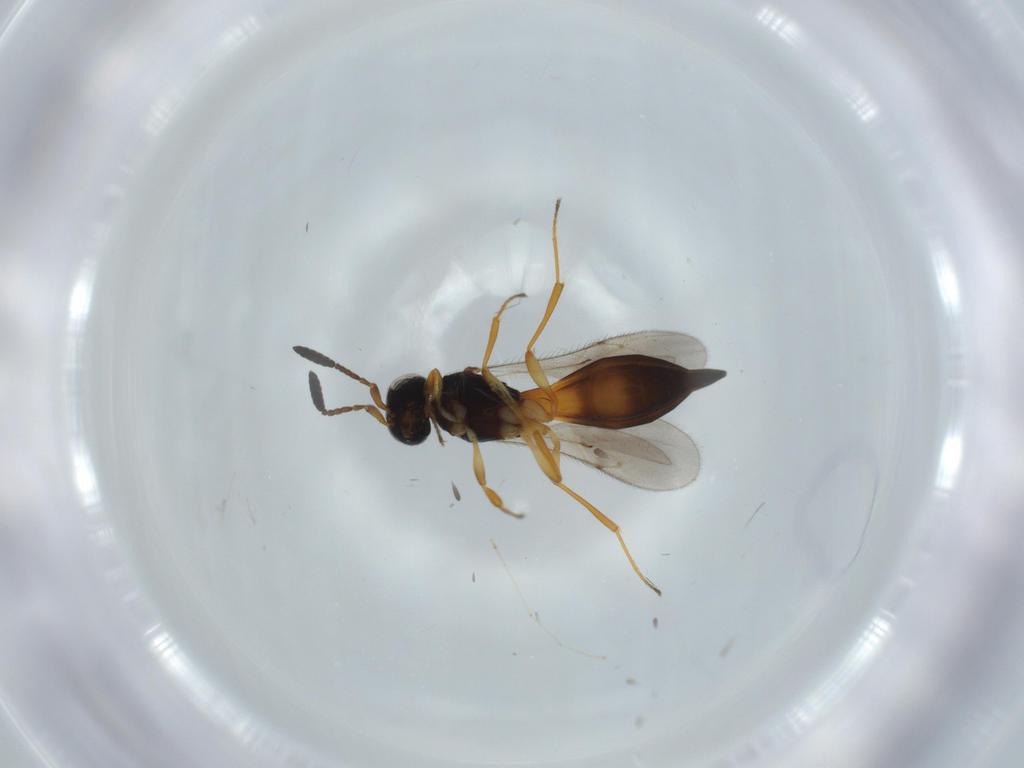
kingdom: Animalia
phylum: Arthropoda
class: Insecta
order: Hymenoptera
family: Scelionidae
